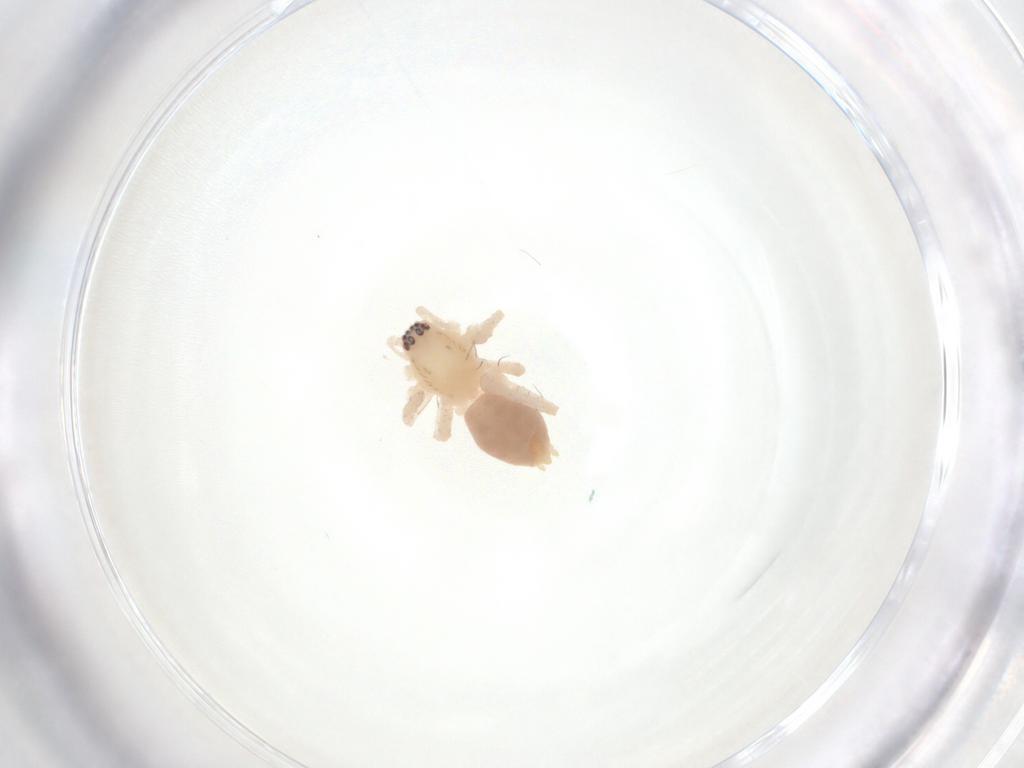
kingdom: Animalia
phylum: Arthropoda
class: Arachnida
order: Araneae
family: Anyphaenidae
